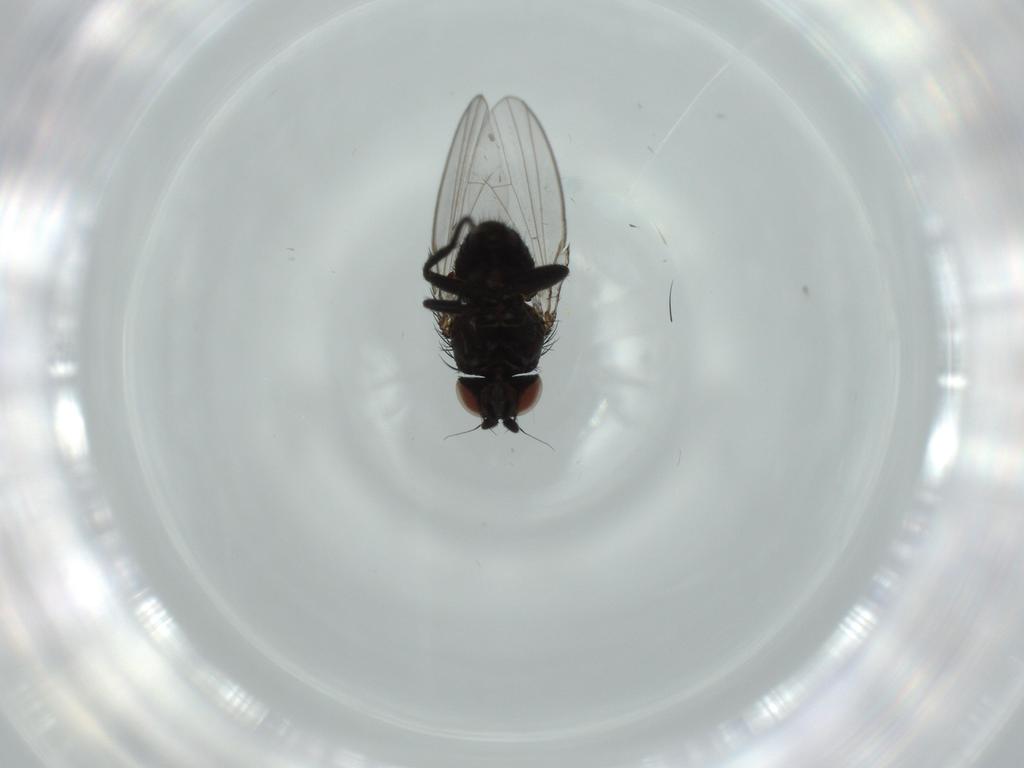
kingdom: Animalia
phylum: Arthropoda
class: Insecta
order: Diptera
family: Milichiidae
